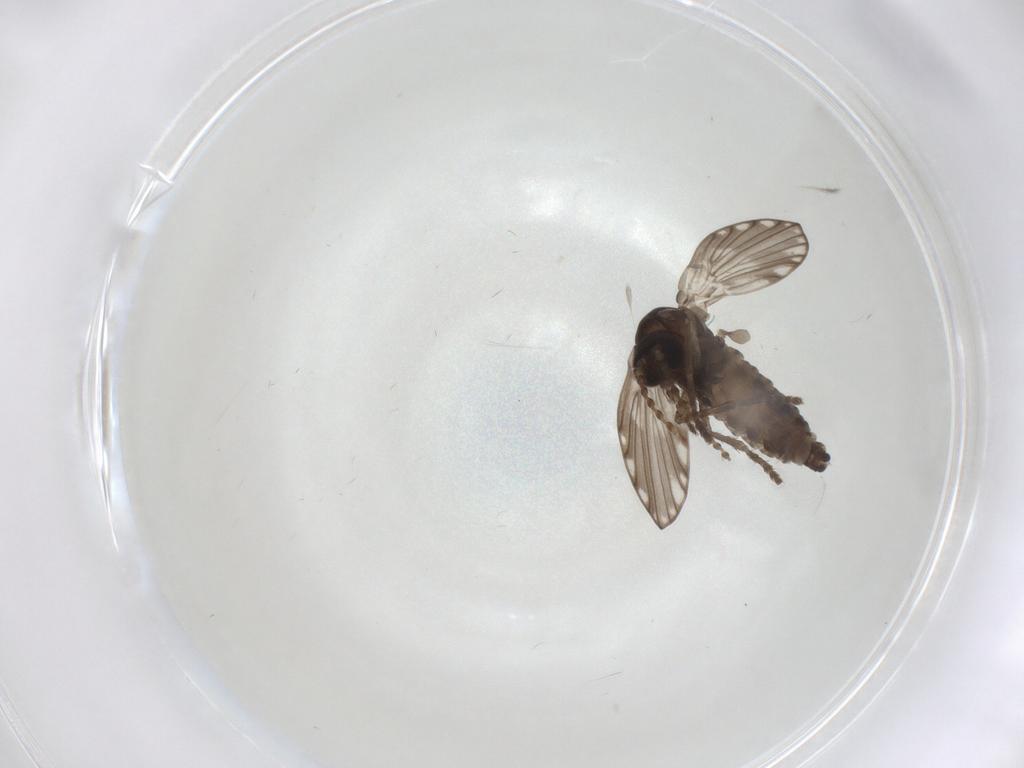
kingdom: Animalia
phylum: Arthropoda
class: Insecta
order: Diptera
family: Psychodidae
